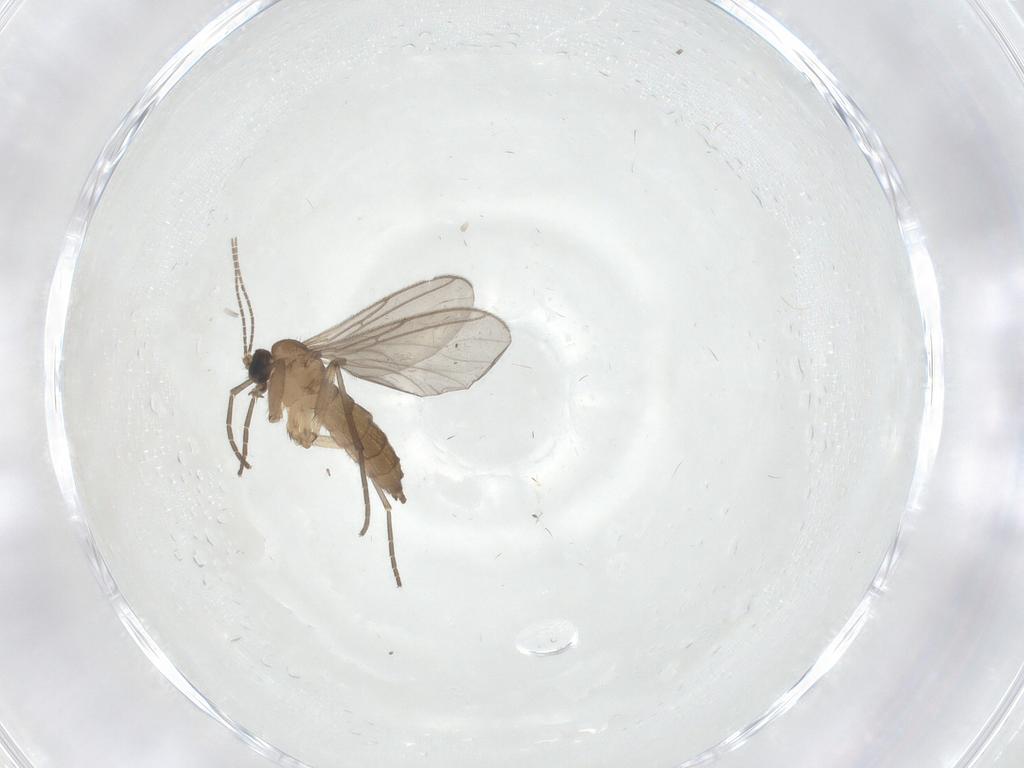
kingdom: Animalia
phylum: Arthropoda
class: Insecta
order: Diptera
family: Sciaridae
